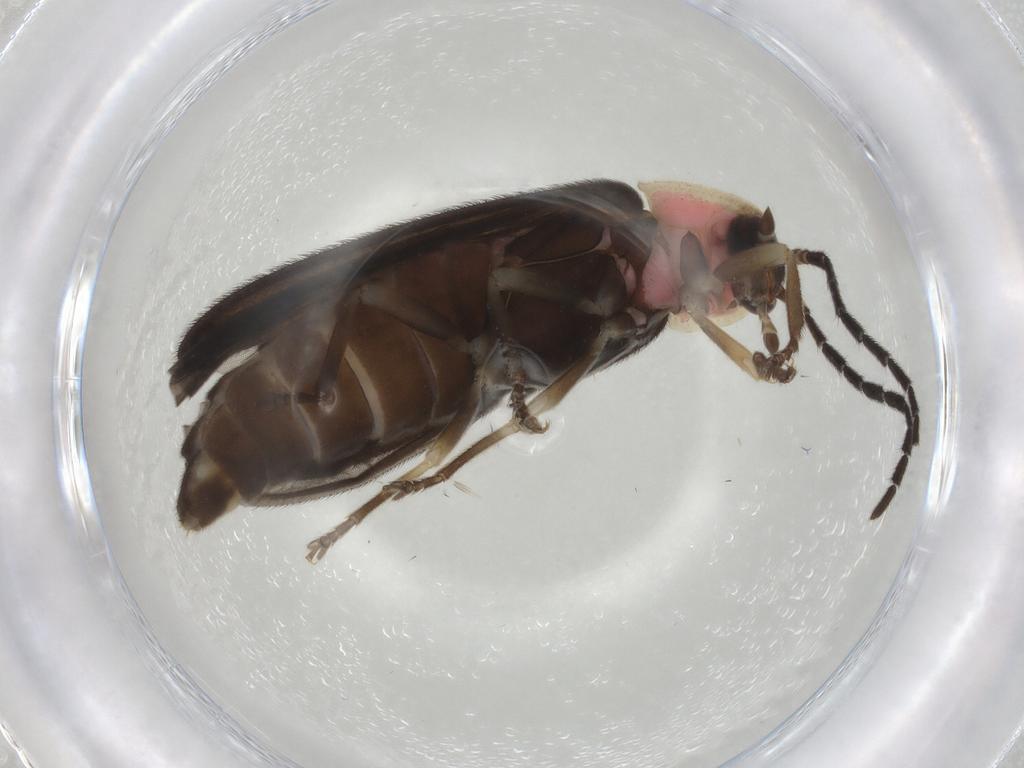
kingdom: Animalia
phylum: Arthropoda
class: Insecta
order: Coleoptera
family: Lampyridae
